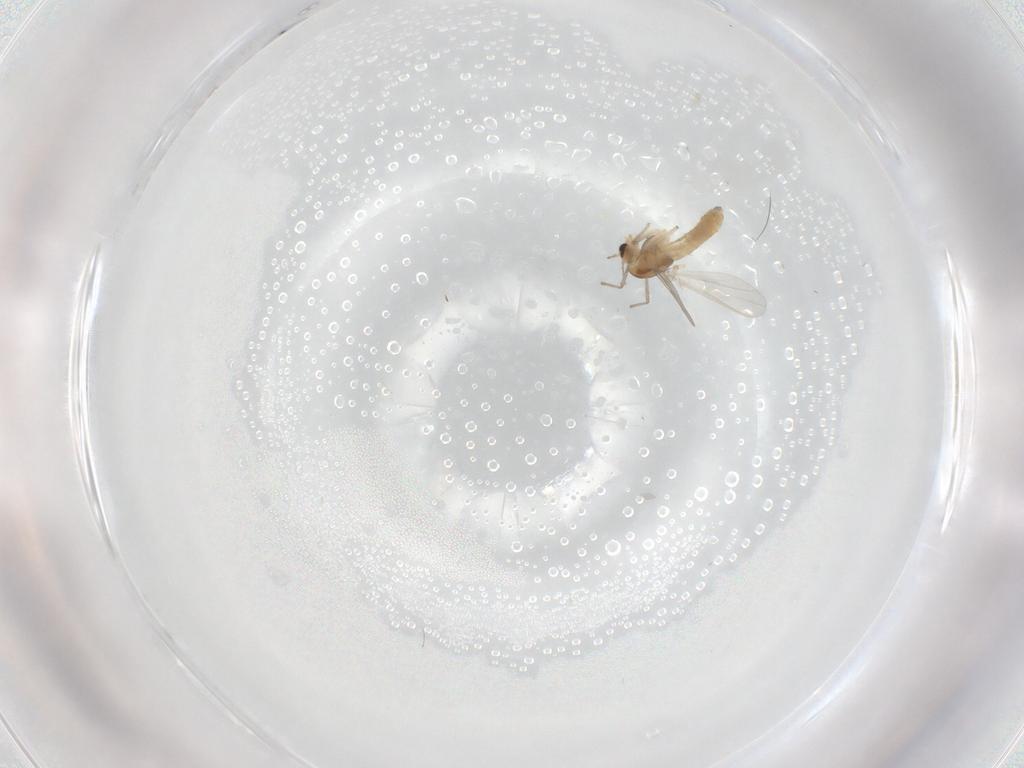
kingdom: Animalia
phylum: Arthropoda
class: Insecta
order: Diptera
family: Chironomidae
